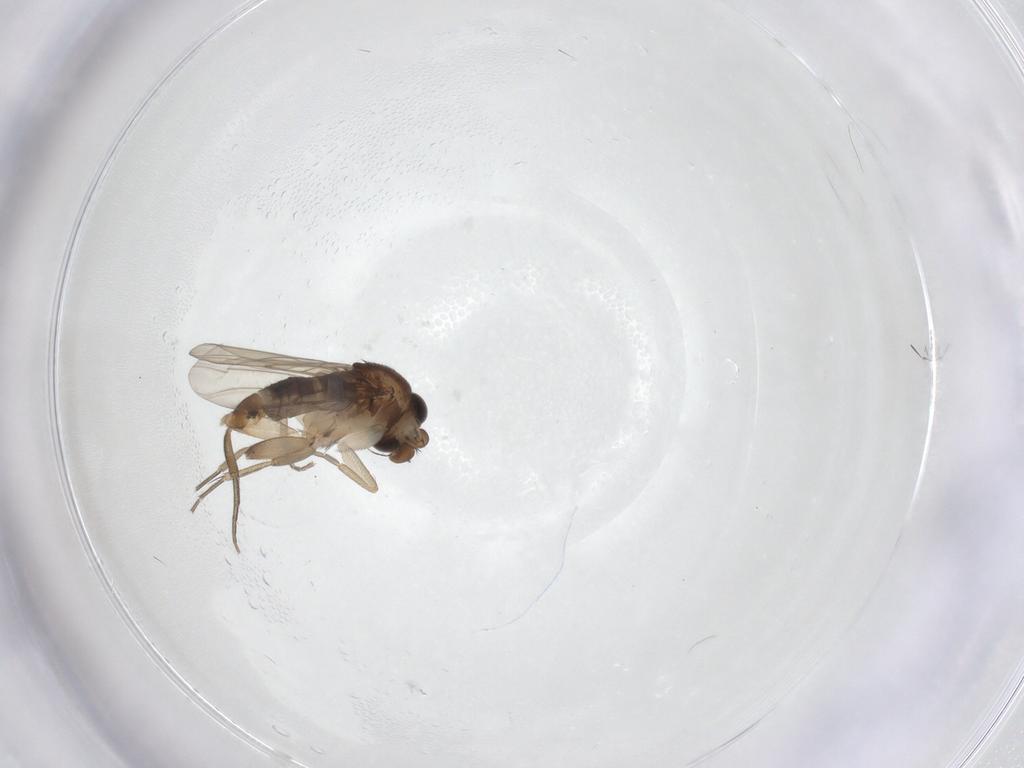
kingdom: Animalia
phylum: Arthropoda
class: Insecta
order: Diptera
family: Phoridae
